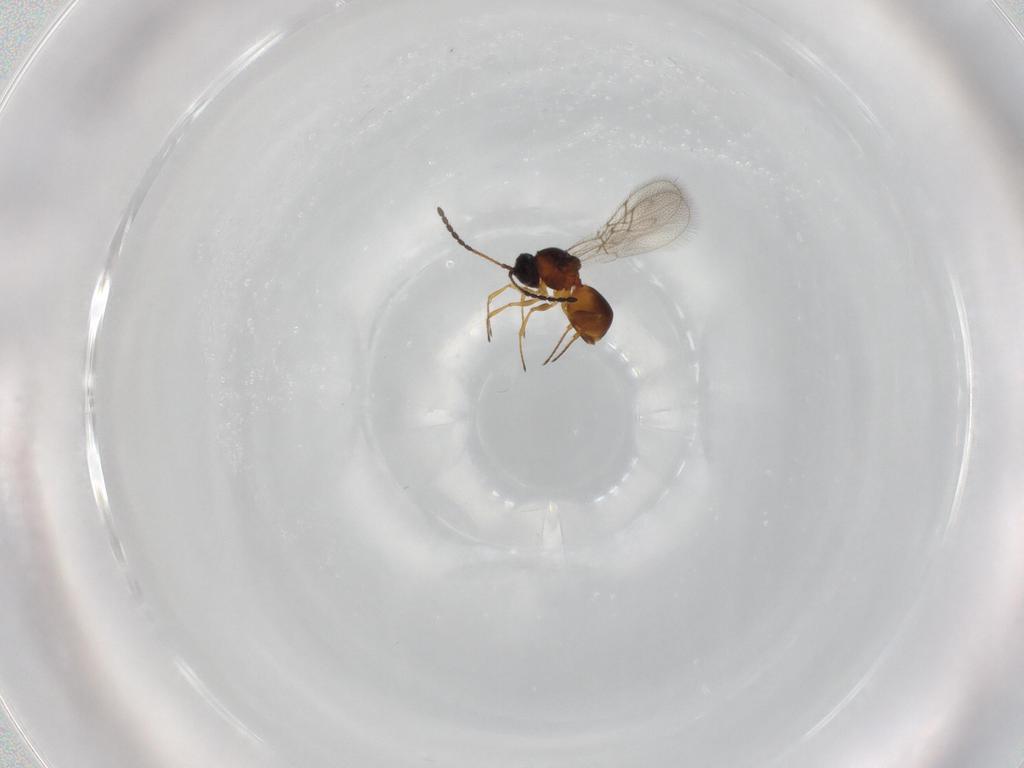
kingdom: Animalia
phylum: Arthropoda
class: Insecta
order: Hymenoptera
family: Figitidae
